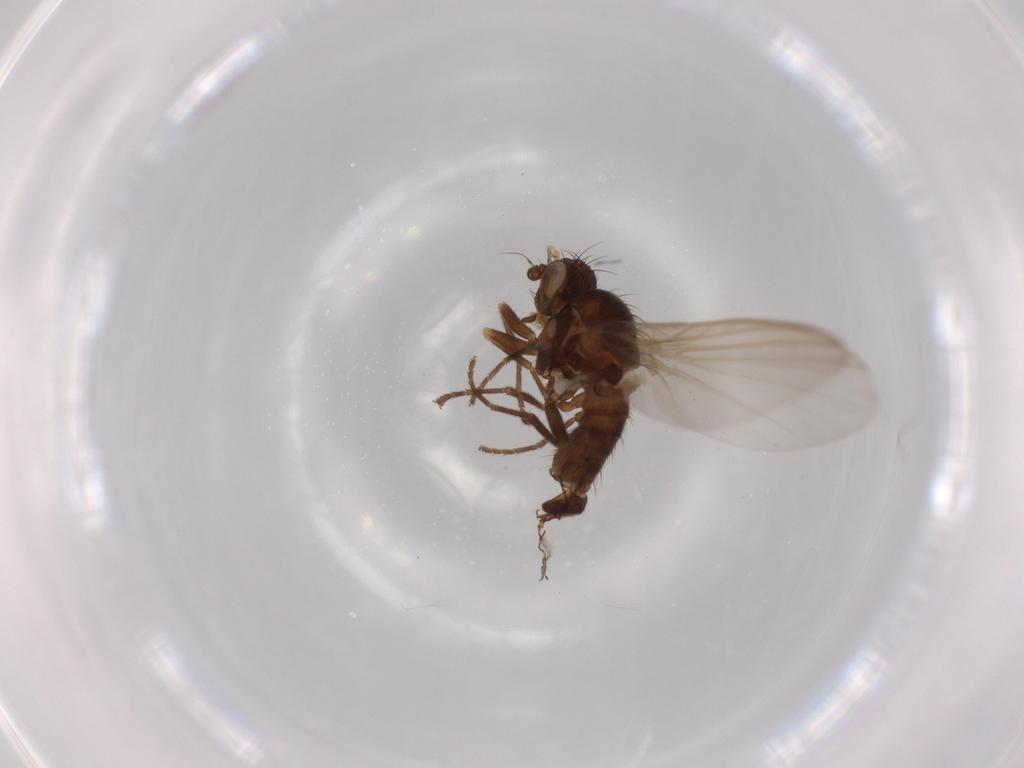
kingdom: Animalia
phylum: Arthropoda
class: Insecta
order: Diptera
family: Agromyzidae
